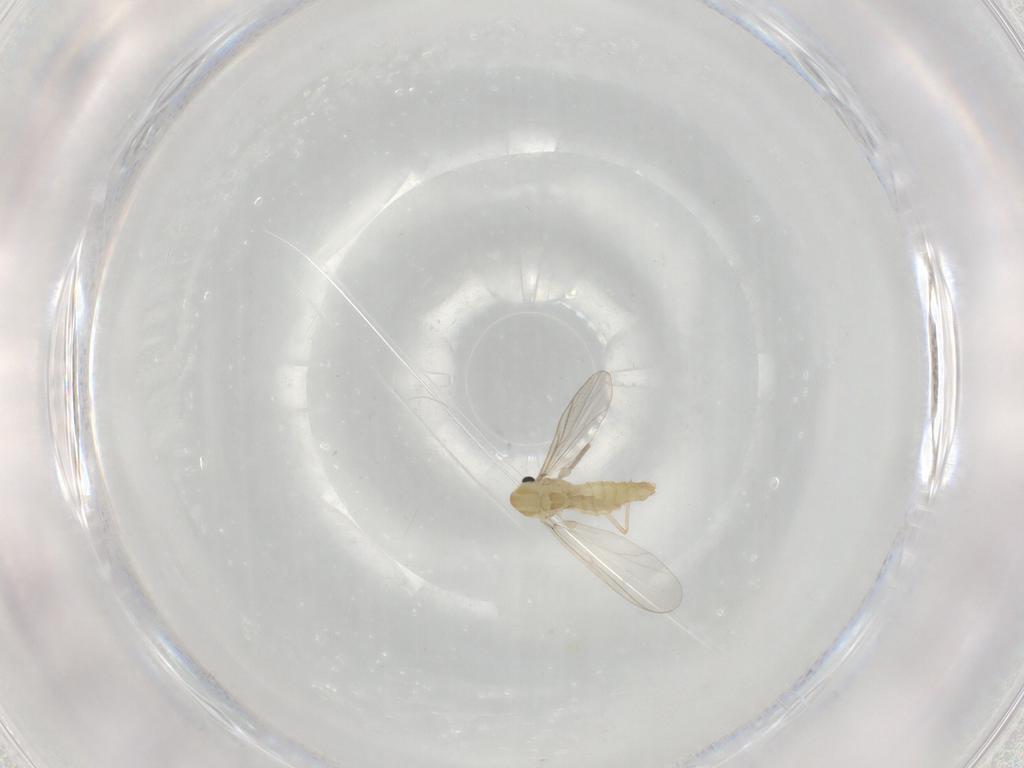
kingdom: Animalia
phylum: Arthropoda
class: Insecta
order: Diptera
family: Chironomidae
